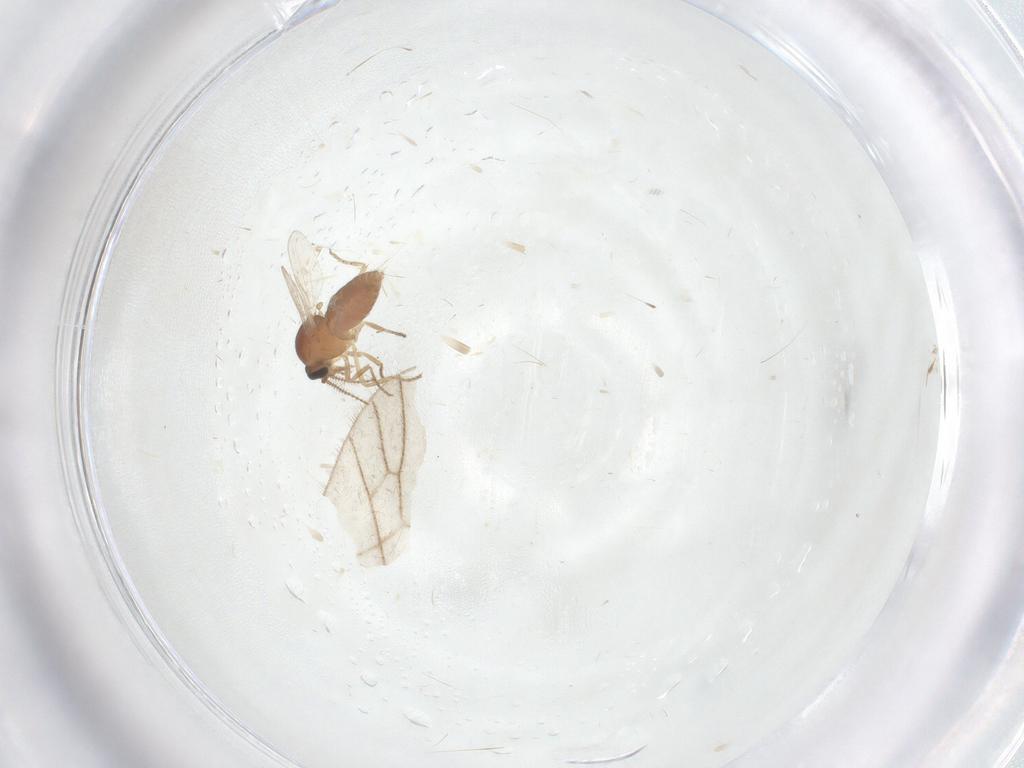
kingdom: Animalia
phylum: Arthropoda
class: Insecta
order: Diptera
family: Ceratopogonidae
